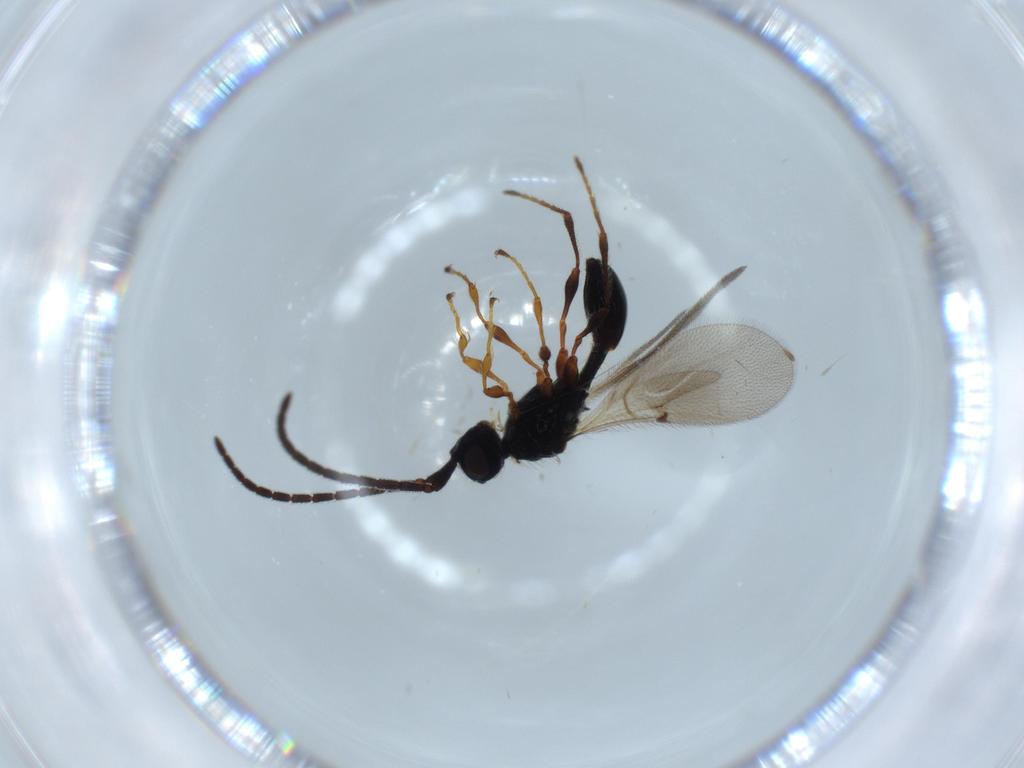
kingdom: Animalia
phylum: Arthropoda
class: Insecta
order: Hymenoptera
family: Diapriidae
